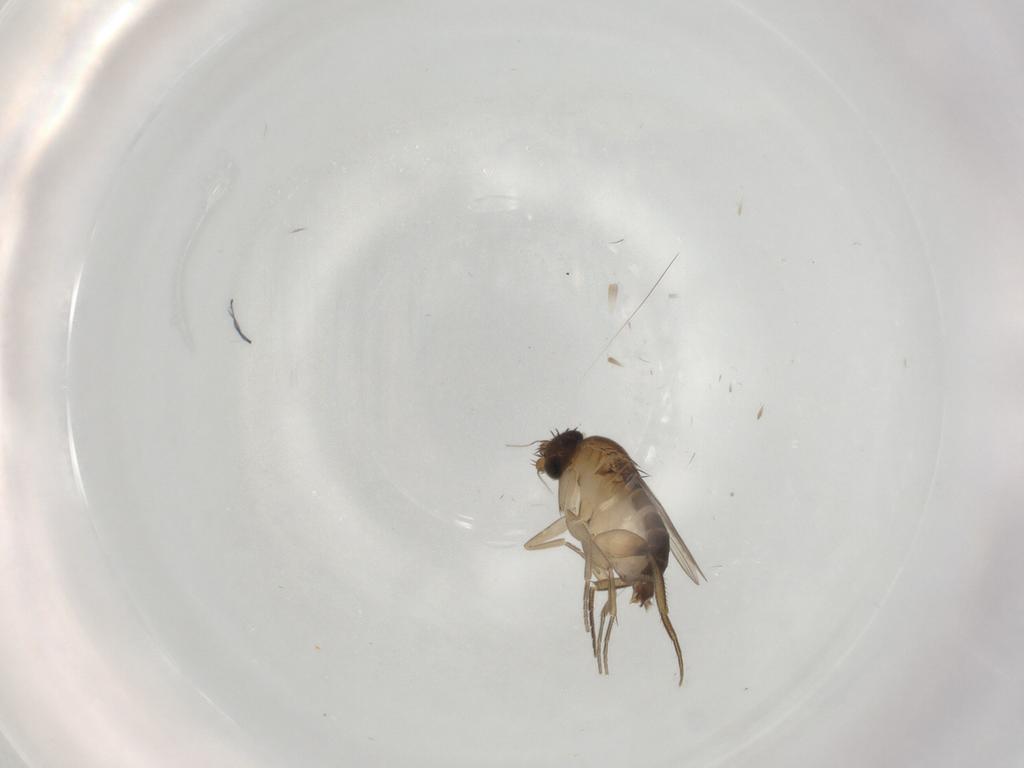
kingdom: Animalia
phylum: Arthropoda
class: Insecta
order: Diptera
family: Phoridae
